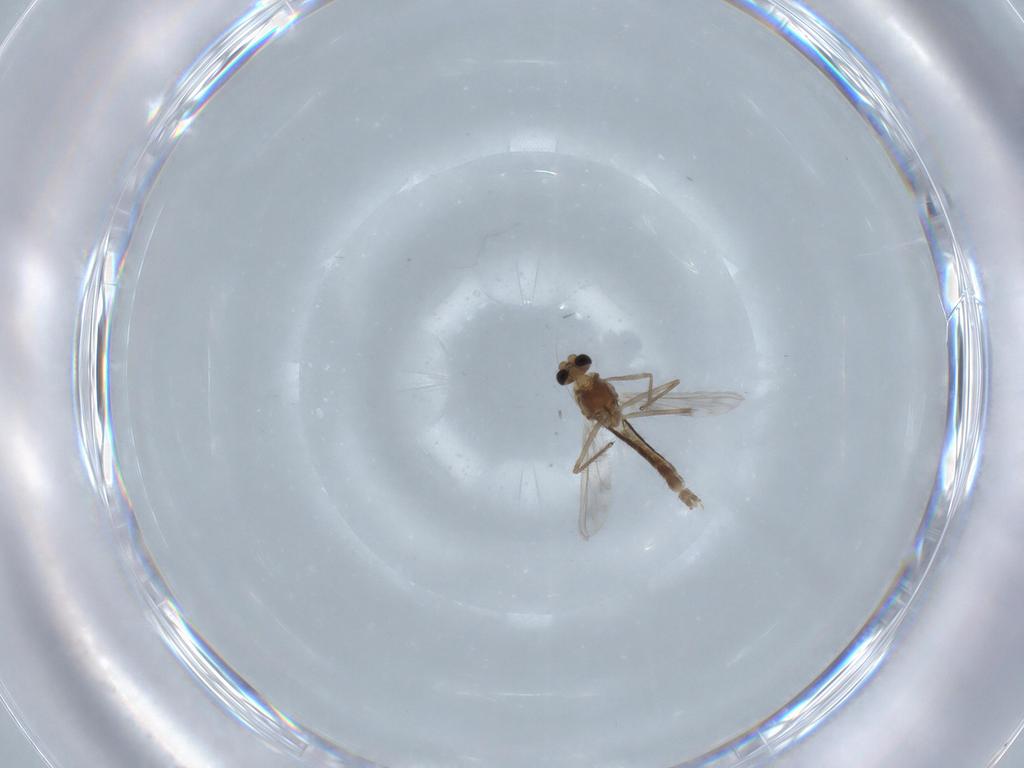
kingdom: Animalia
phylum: Arthropoda
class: Insecta
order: Diptera
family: Chironomidae
